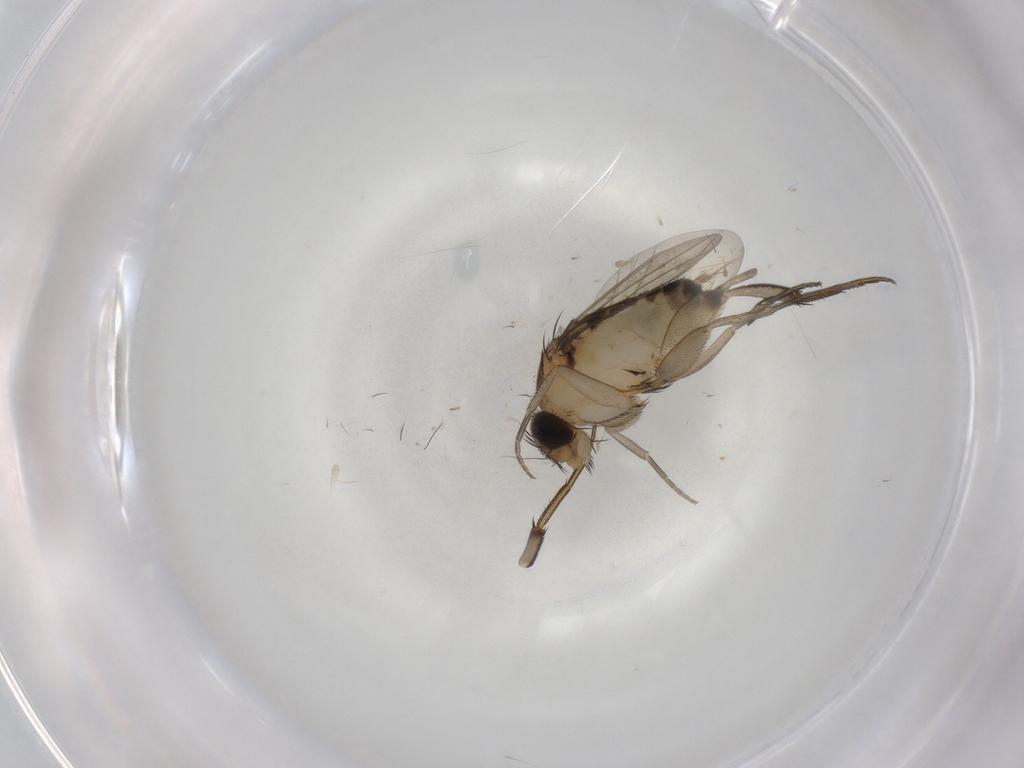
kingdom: Animalia
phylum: Arthropoda
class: Insecta
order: Diptera
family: Phoridae
